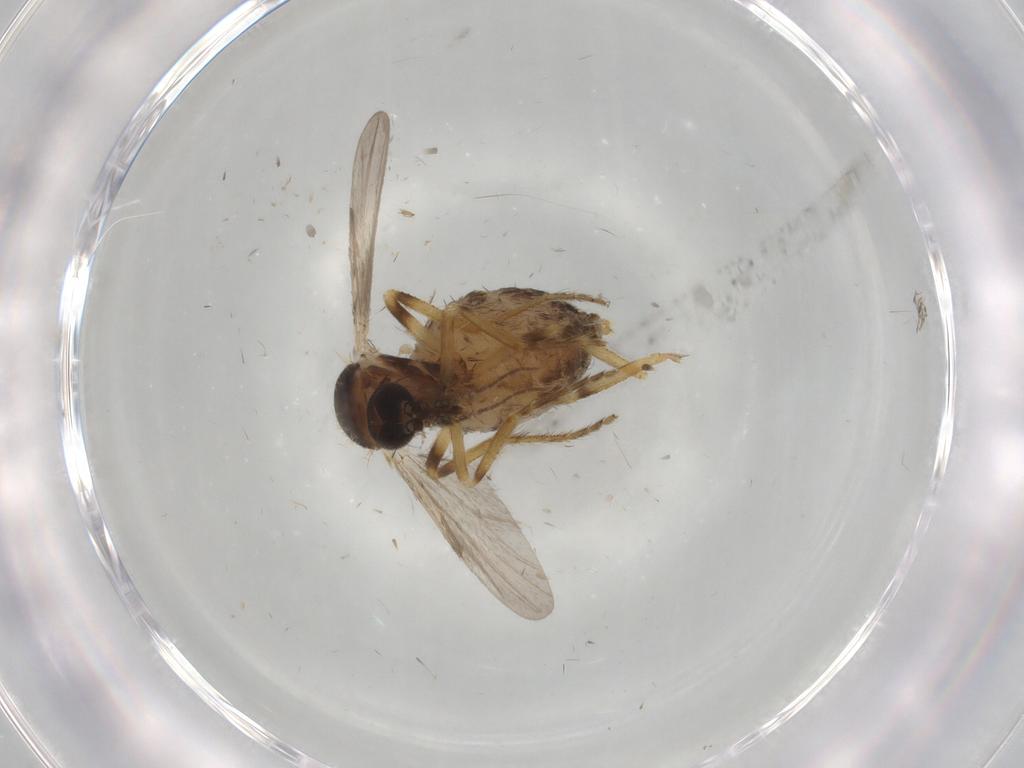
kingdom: Animalia
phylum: Arthropoda
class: Insecta
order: Diptera
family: Ceratopogonidae
